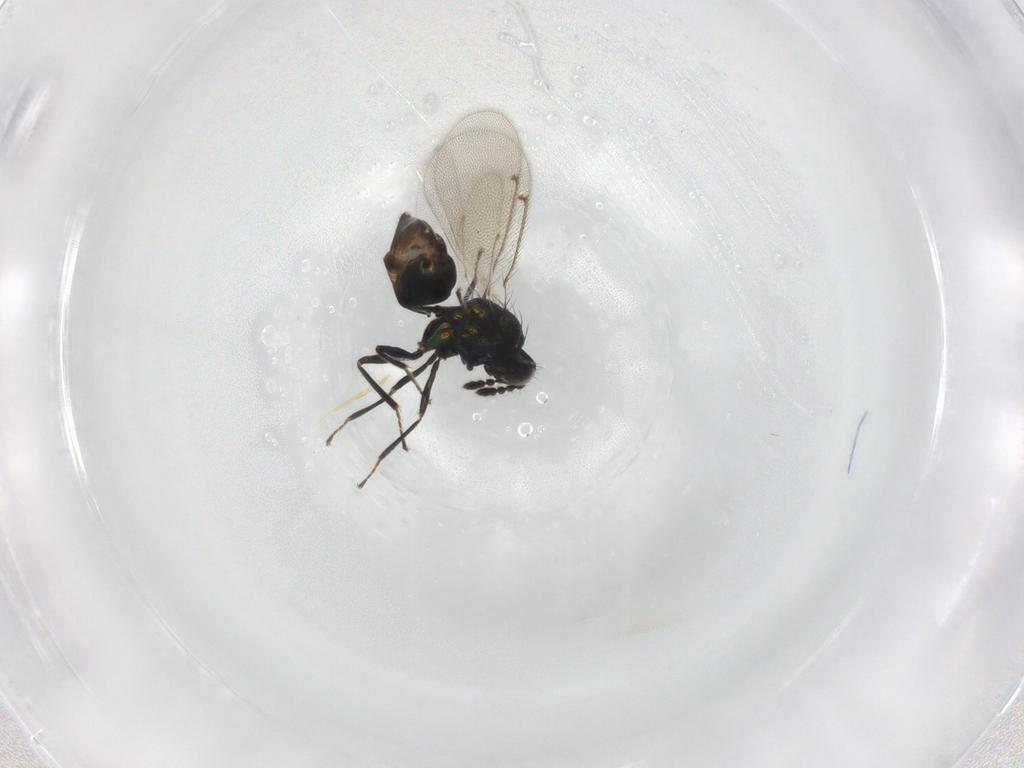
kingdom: Animalia
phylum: Arthropoda
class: Insecta
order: Hymenoptera
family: Eulophidae
